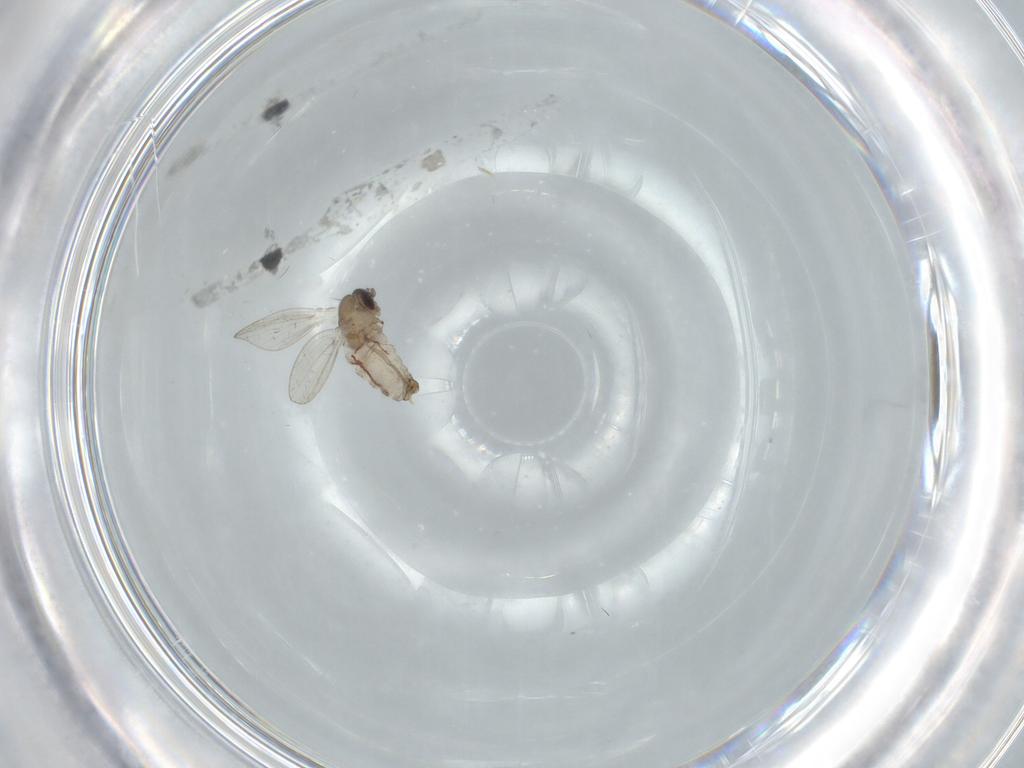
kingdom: Animalia
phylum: Arthropoda
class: Insecta
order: Diptera
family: Psychodidae
